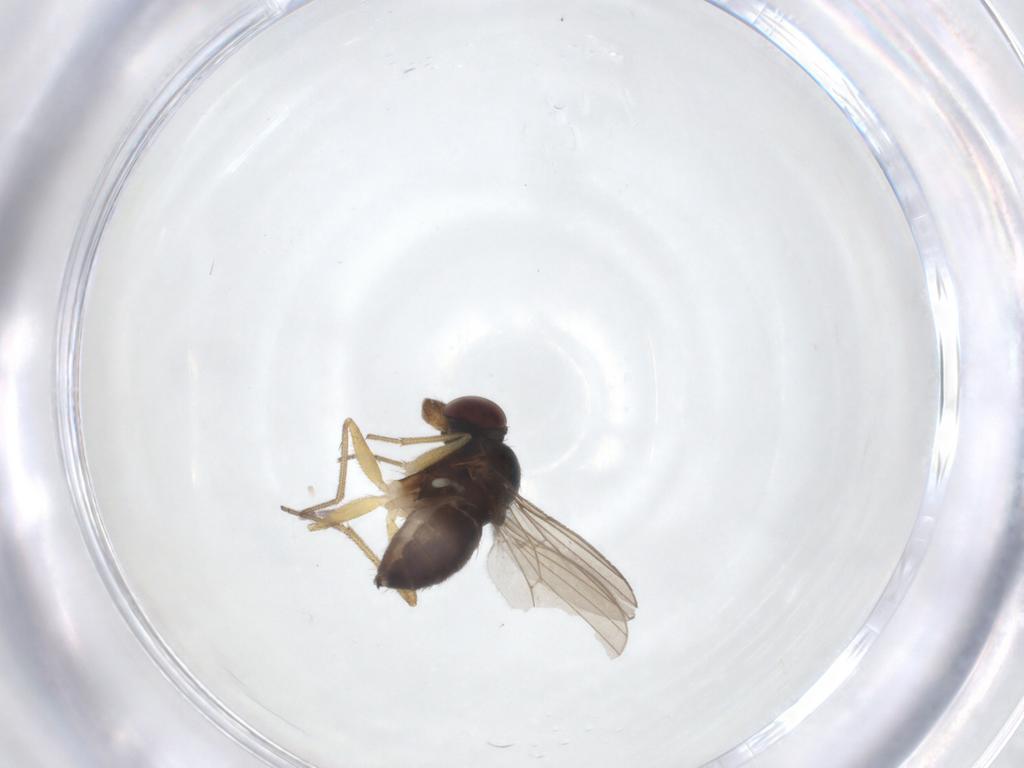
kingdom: Animalia
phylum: Arthropoda
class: Insecta
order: Diptera
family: Dolichopodidae
